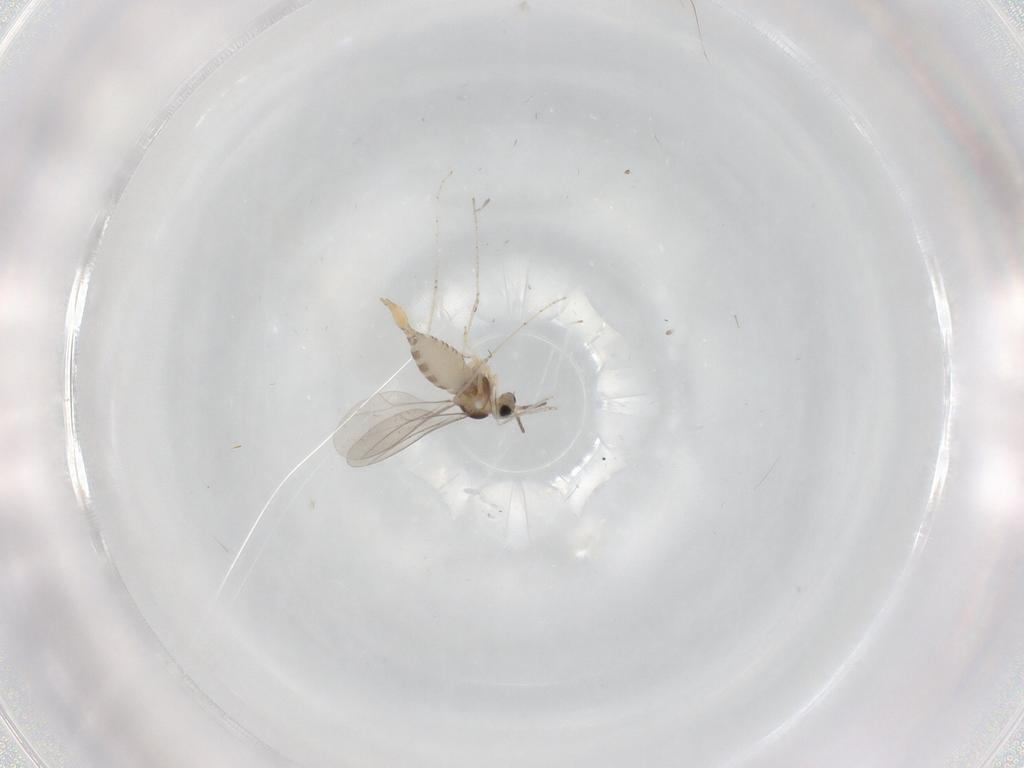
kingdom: Animalia
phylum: Arthropoda
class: Insecta
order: Diptera
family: Cecidomyiidae
